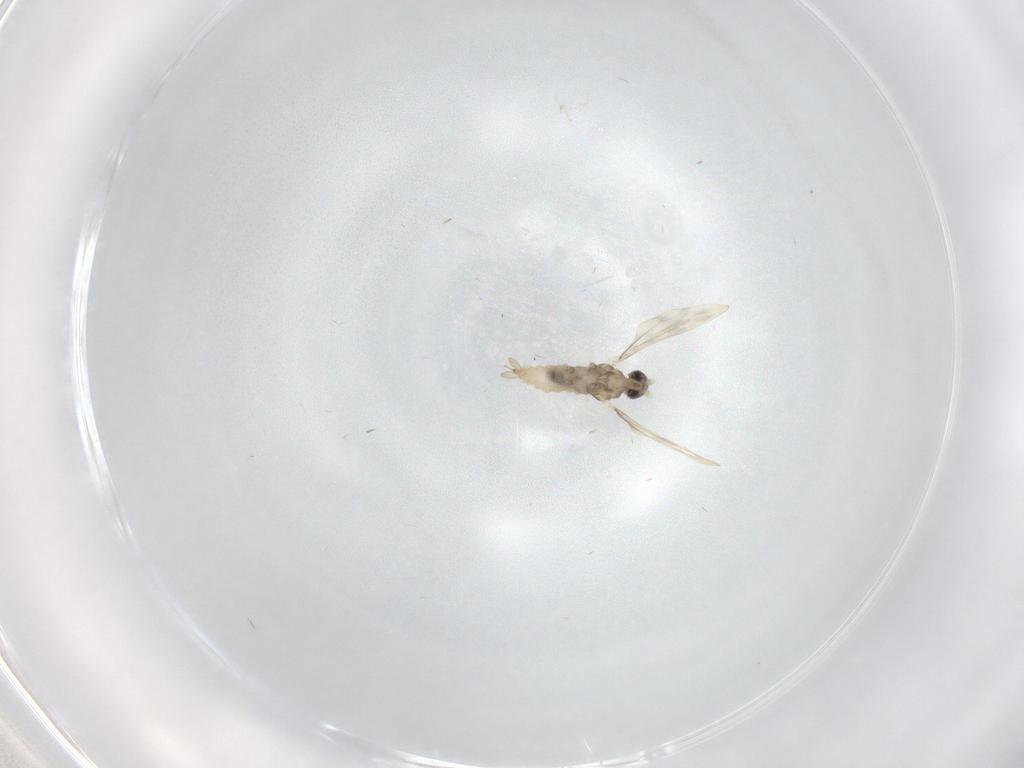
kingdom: Animalia
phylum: Arthropoda
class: Insecta
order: Diptera
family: Cecidomyiidae
